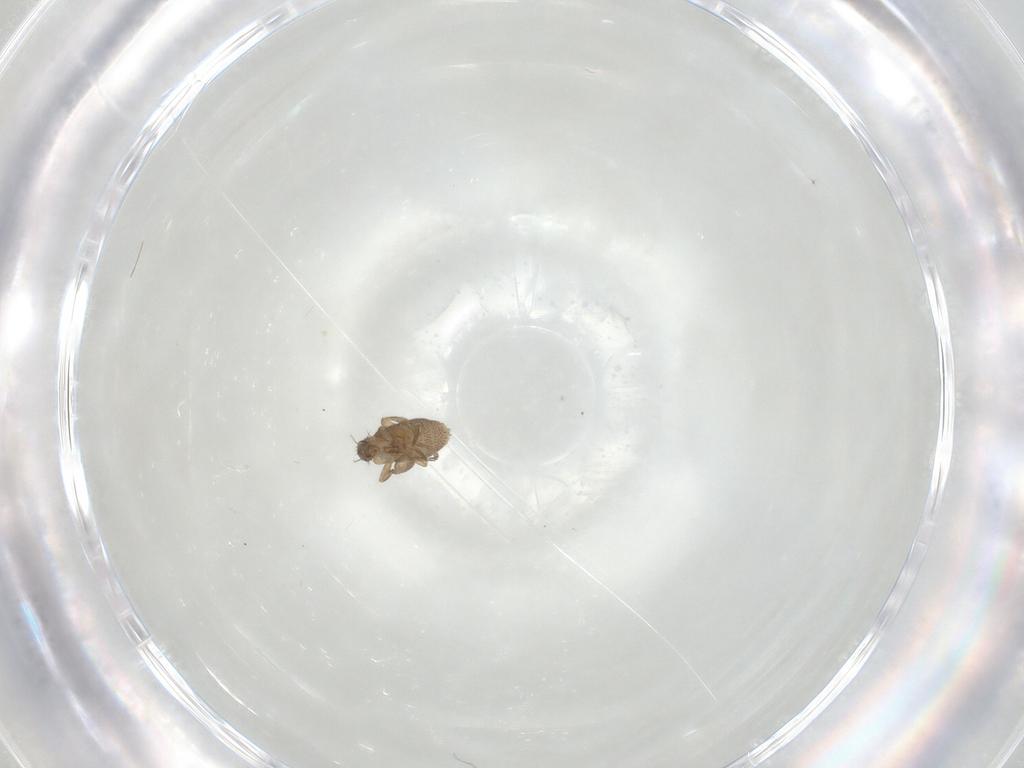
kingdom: Animalia
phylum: Arthropoda
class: Insecta
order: Diptera
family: Phoridae
